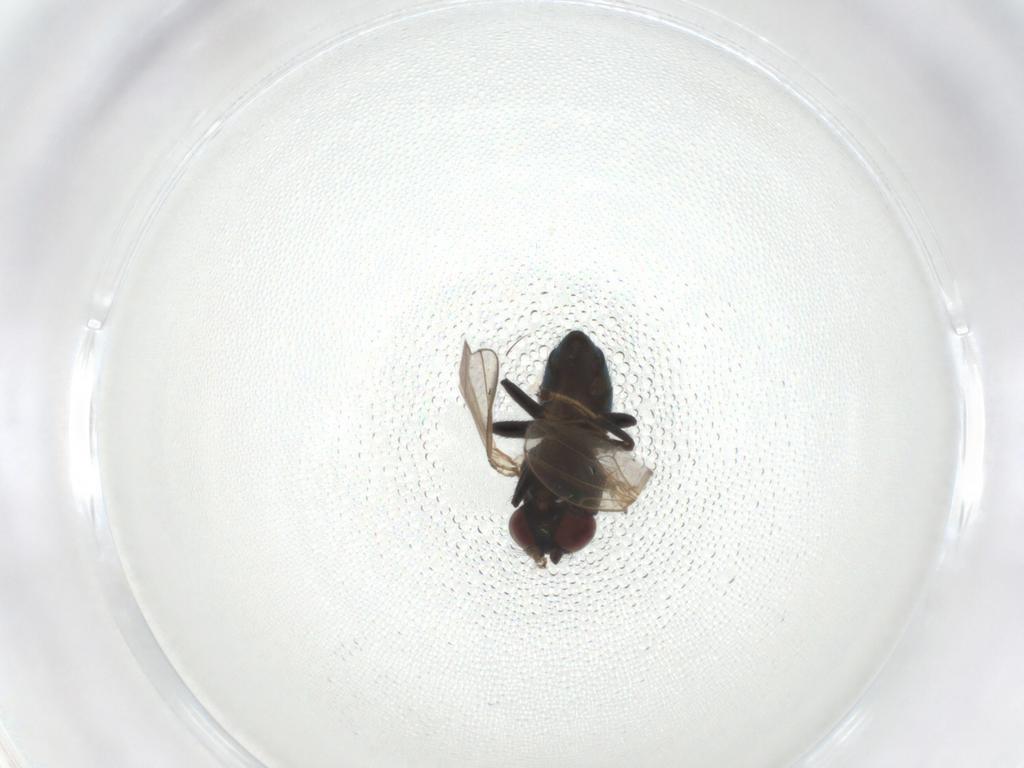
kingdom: Animalia
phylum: Arthropoda
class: Insecta
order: Diptera
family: Ephydridae
